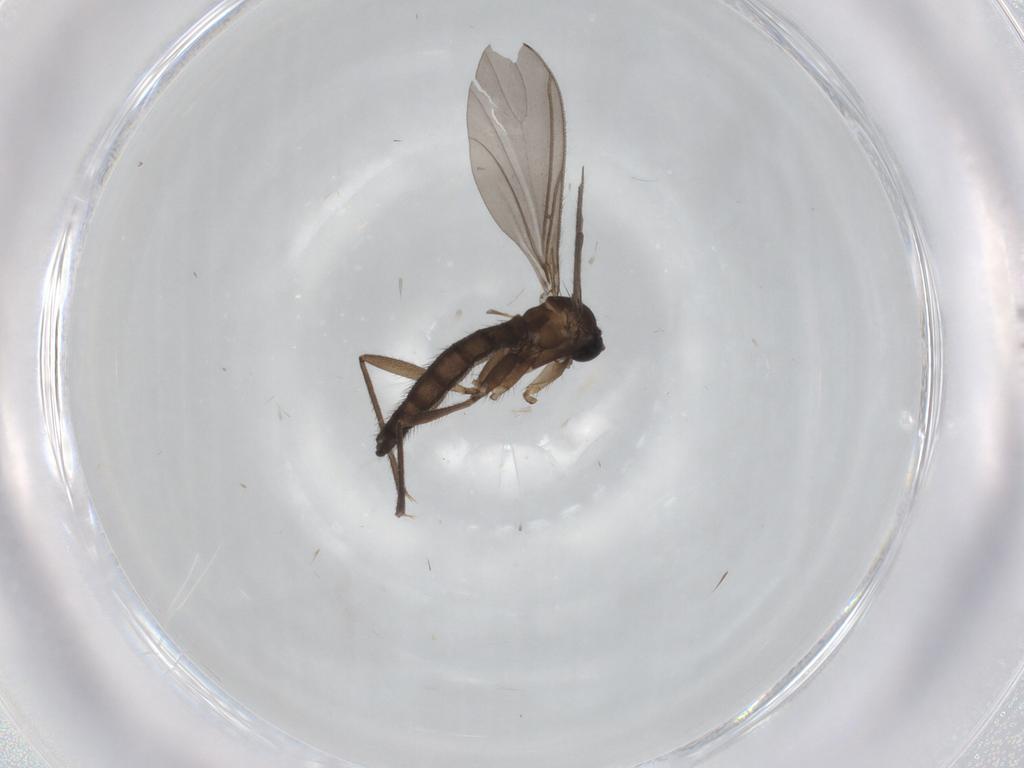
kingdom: Animalia
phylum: Arthropoda
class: Insecta
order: Diptera
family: Sciaridae
